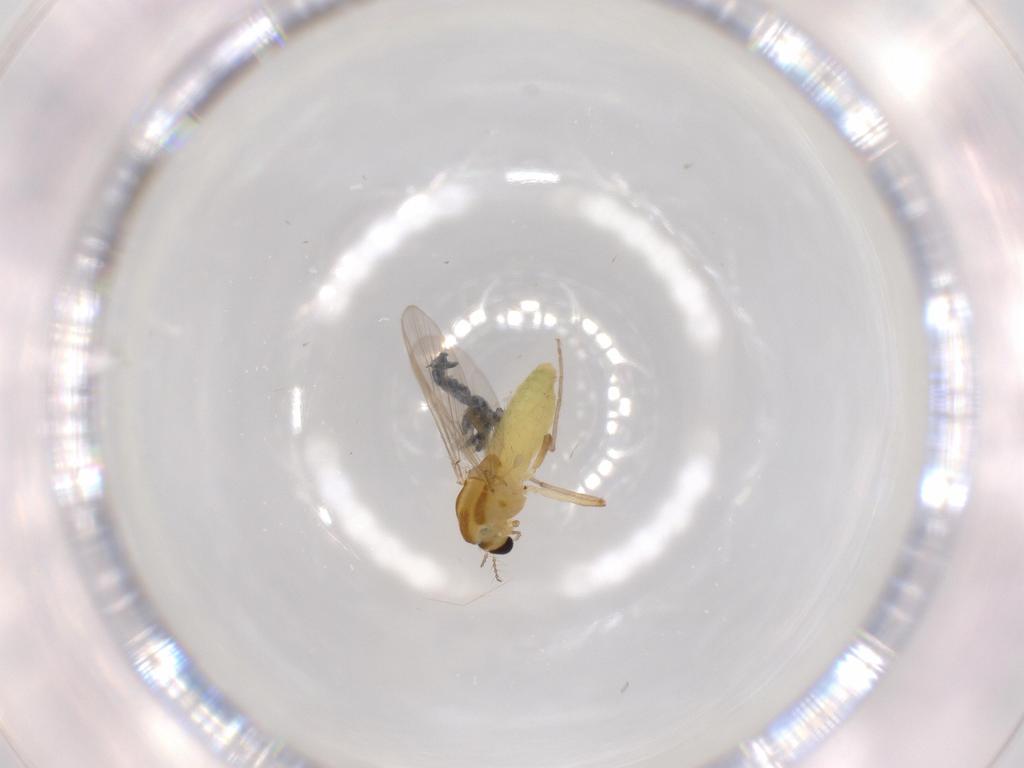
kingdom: Animalia
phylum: Arthropoda
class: Insecta
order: Diptera
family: Chironomidae
